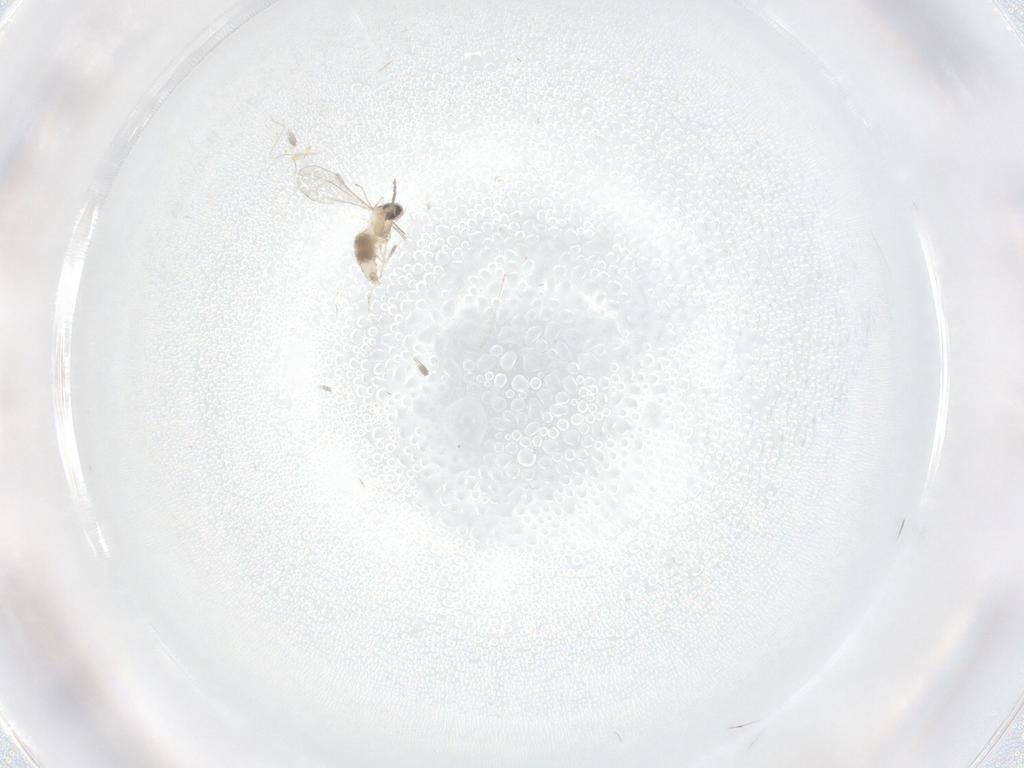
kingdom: Animalia
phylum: Arthropoda
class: Insecta
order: Diptera
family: Cecidomyiidae
